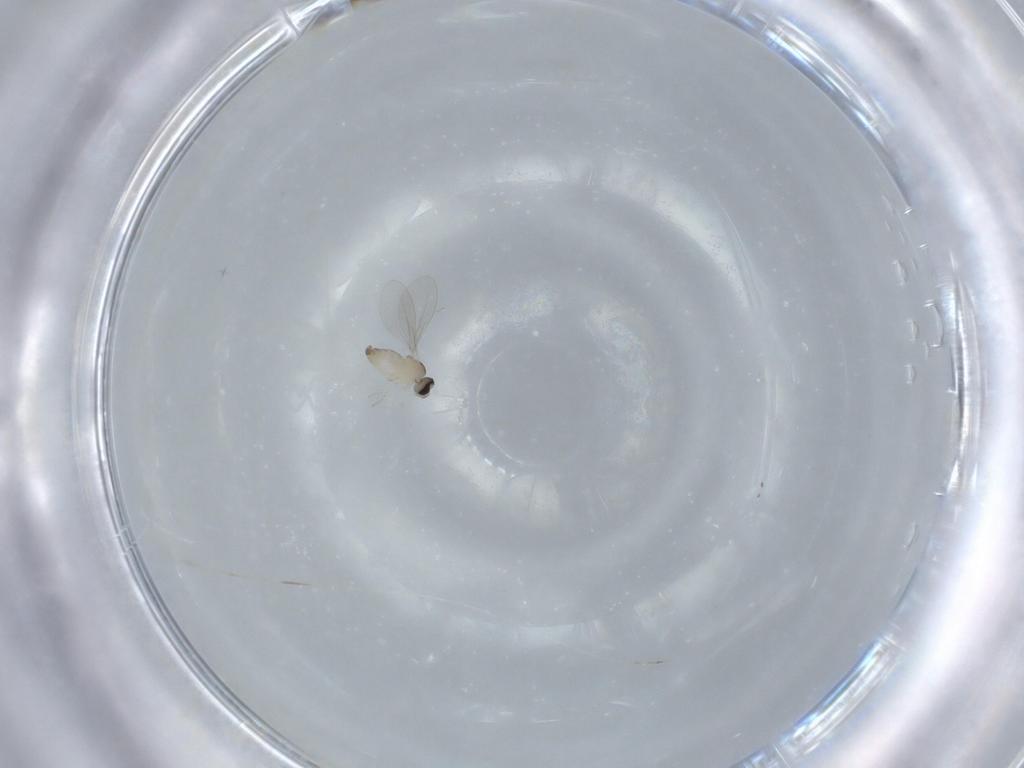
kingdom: Animalia
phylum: Arthropoda
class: Insecta
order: Diptera
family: Cecidomyiidae
